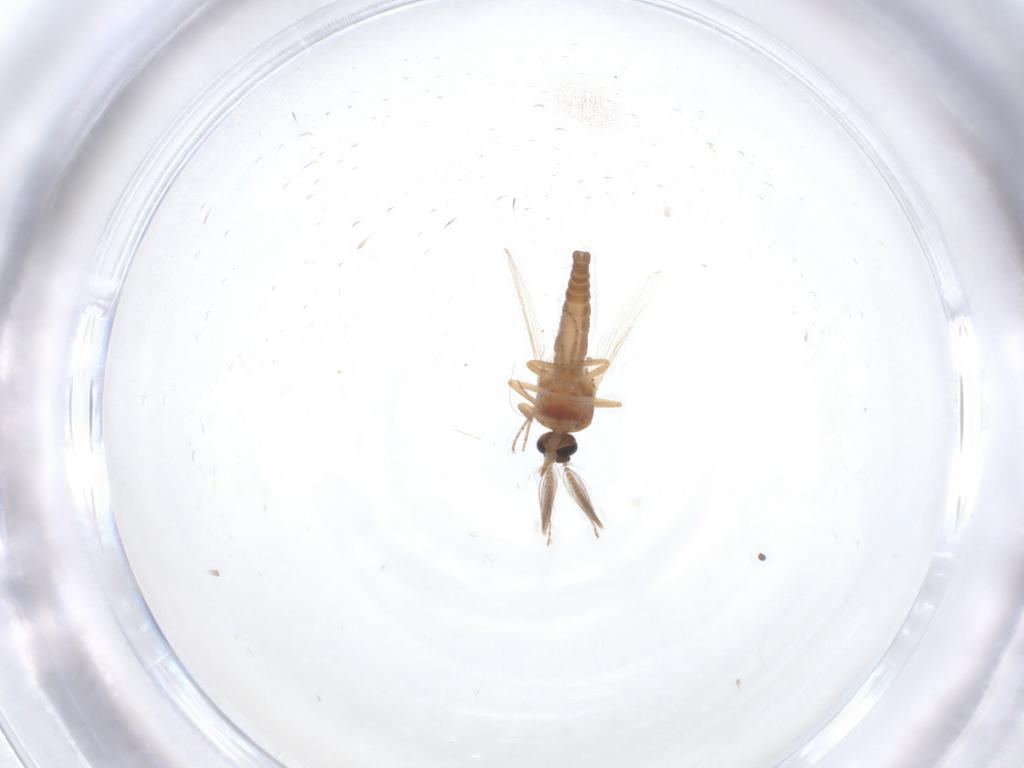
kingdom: Animalia
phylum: Arthropoda
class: Insecta
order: Diptera
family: Ceratopogonidae
